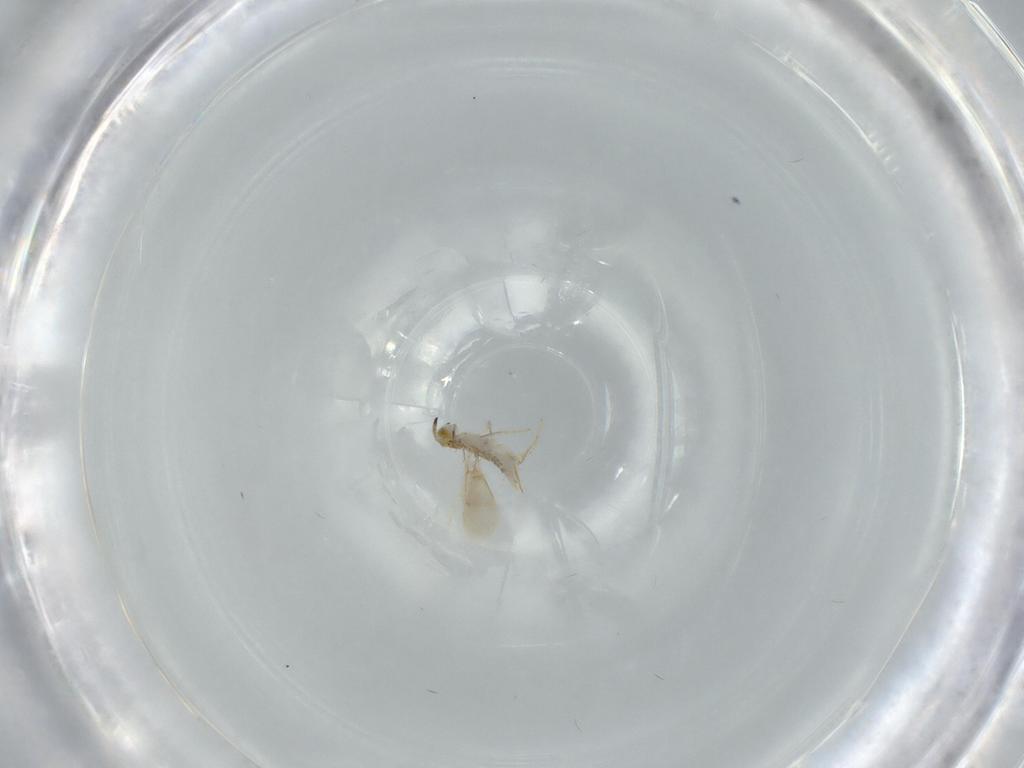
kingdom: Animalia
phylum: Arthropoda
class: Insecta
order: Hymenoptera
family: Aphelinidae
